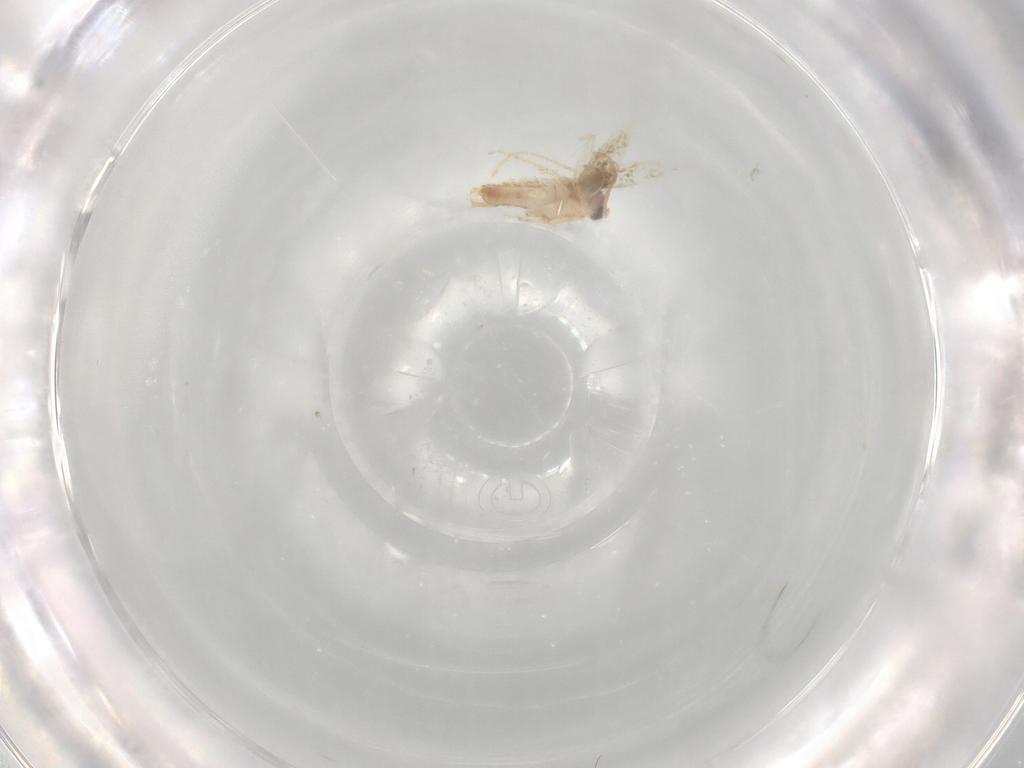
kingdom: Animalia
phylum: Arthropoda
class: Insecta
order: Lepidoptera
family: Nepticulidae
